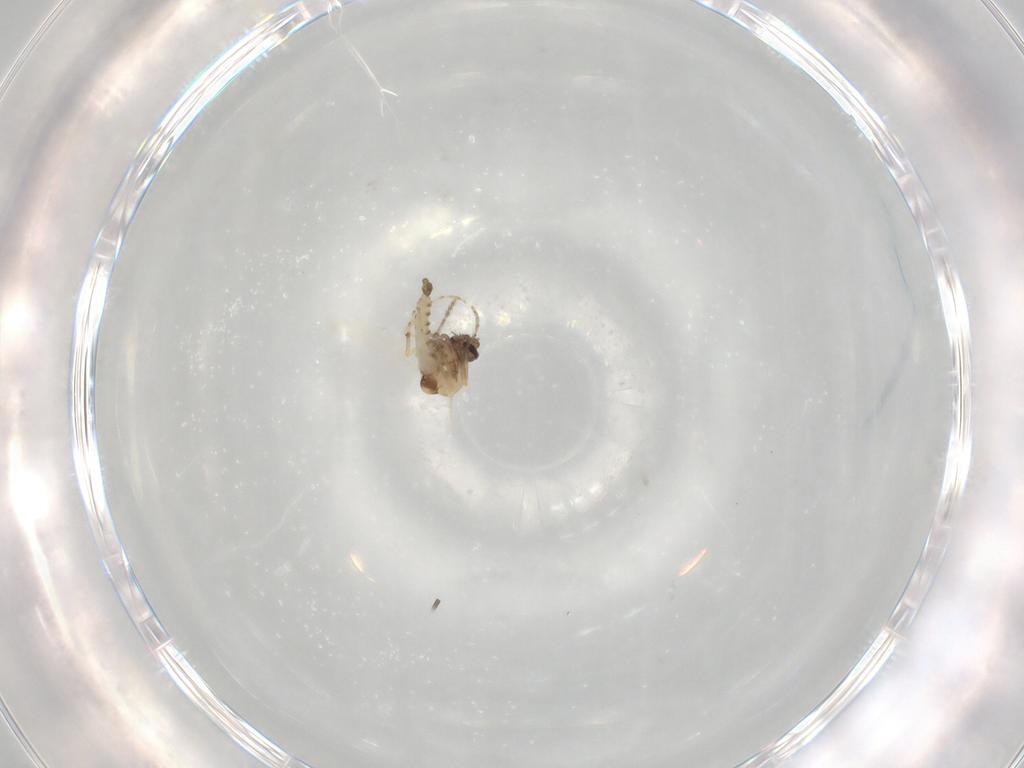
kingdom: Animalia
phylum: Arthropoda
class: Insecta
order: Diptera
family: Ceratopogonidae
